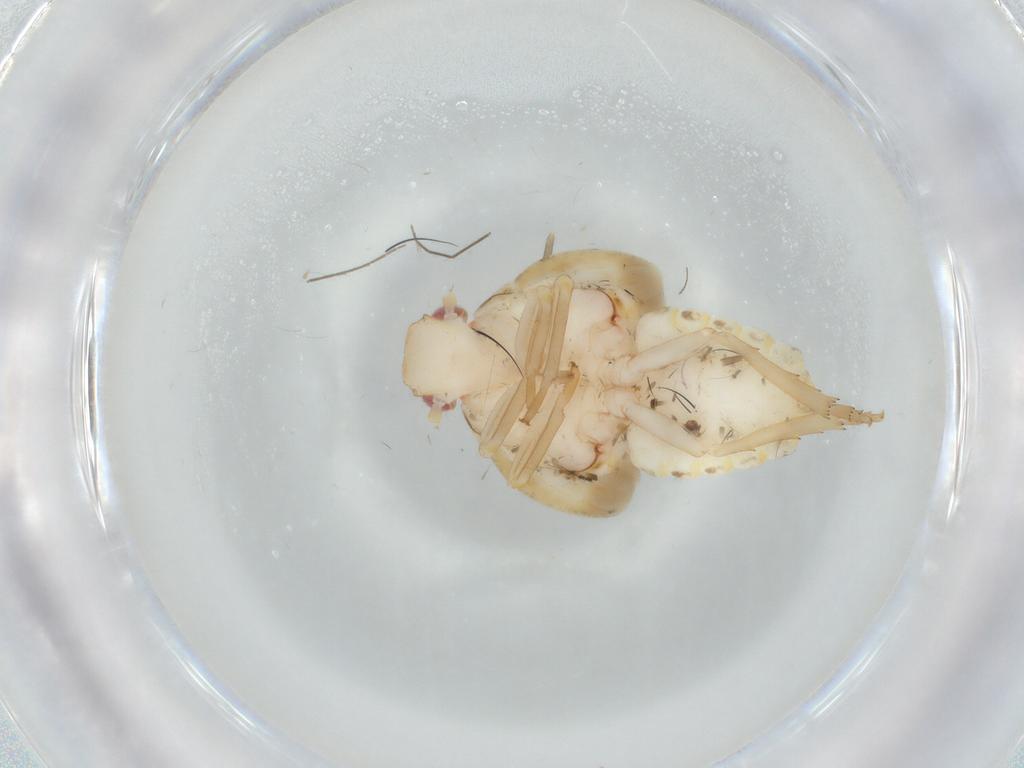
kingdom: Animalia
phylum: Arthropoda
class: Insecta
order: Hemiptera
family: Flatidae
